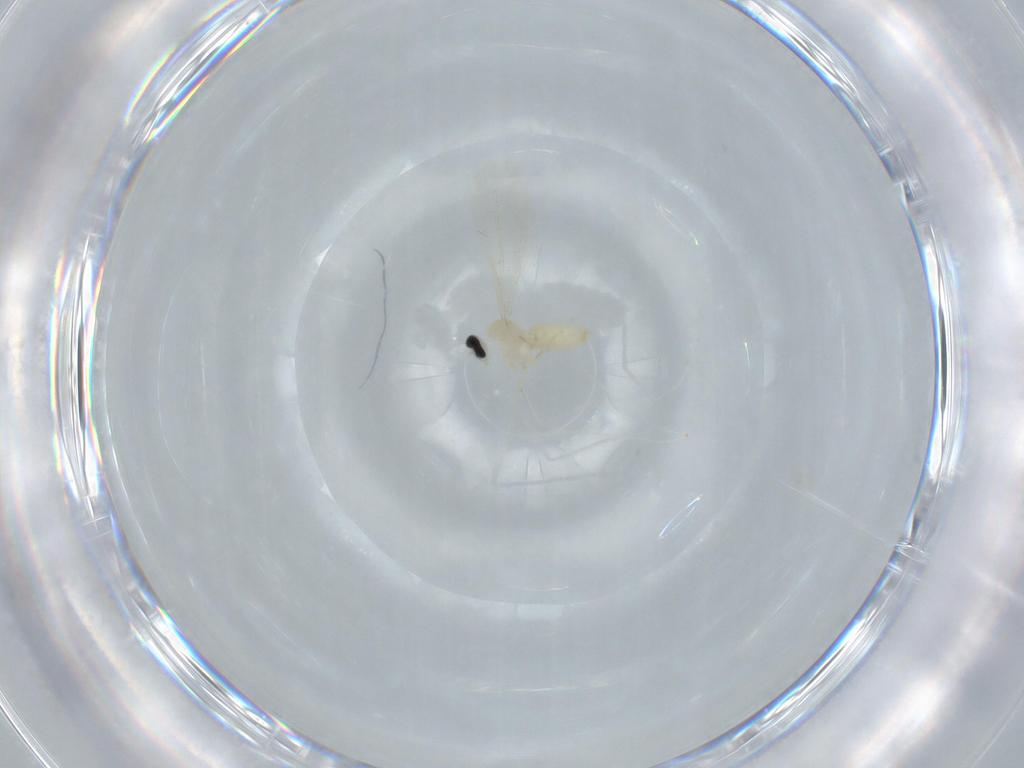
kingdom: Animalia
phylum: Arthropoda
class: Insecta
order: Diptera
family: Cecidomyiidae
